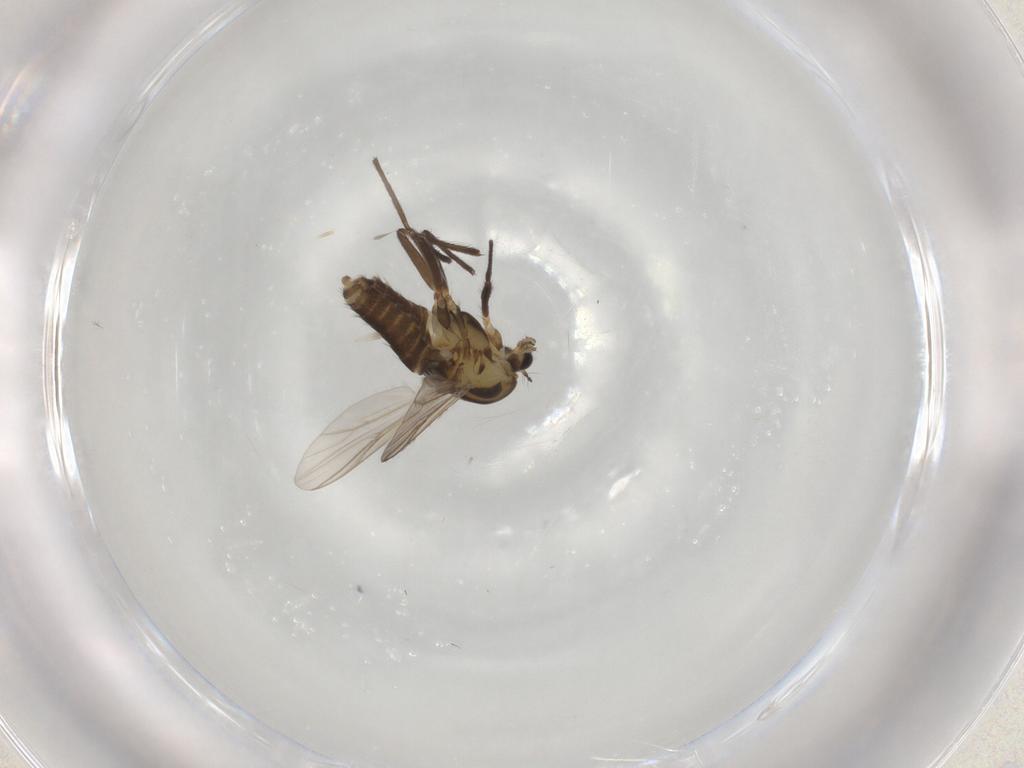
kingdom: Animalia
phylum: Arthropoda
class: Insecta
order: Diptera
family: Chironomidae
